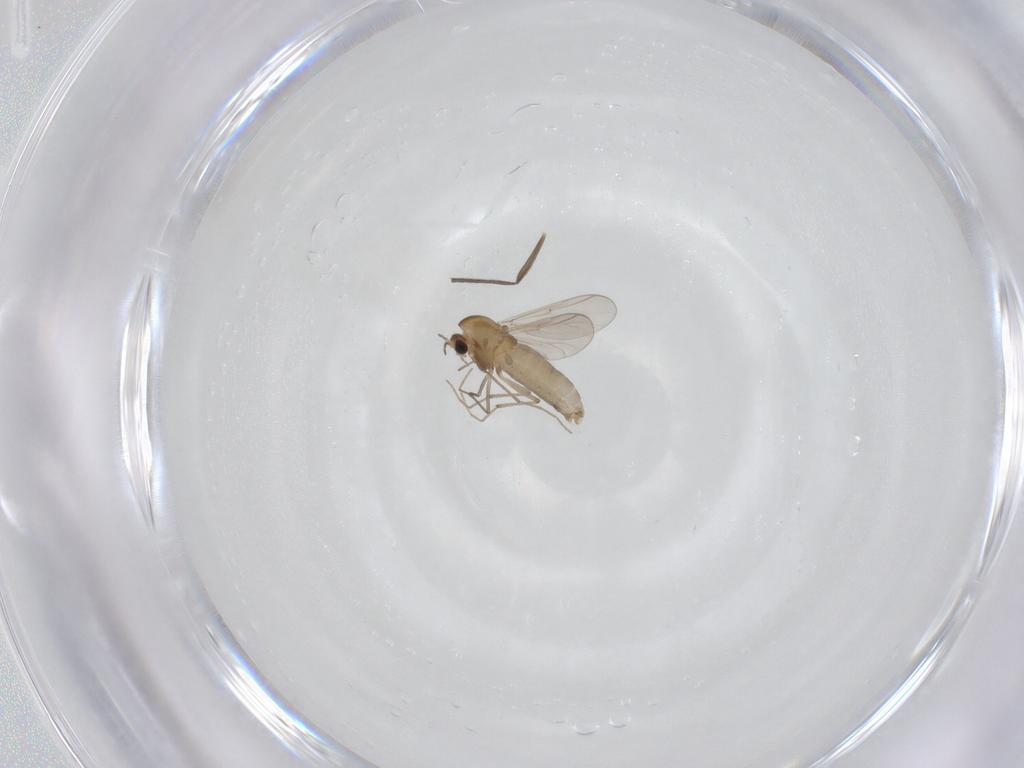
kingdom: Animalia
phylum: Arthropoda
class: Insecta
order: Diptera
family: Chironomidae
